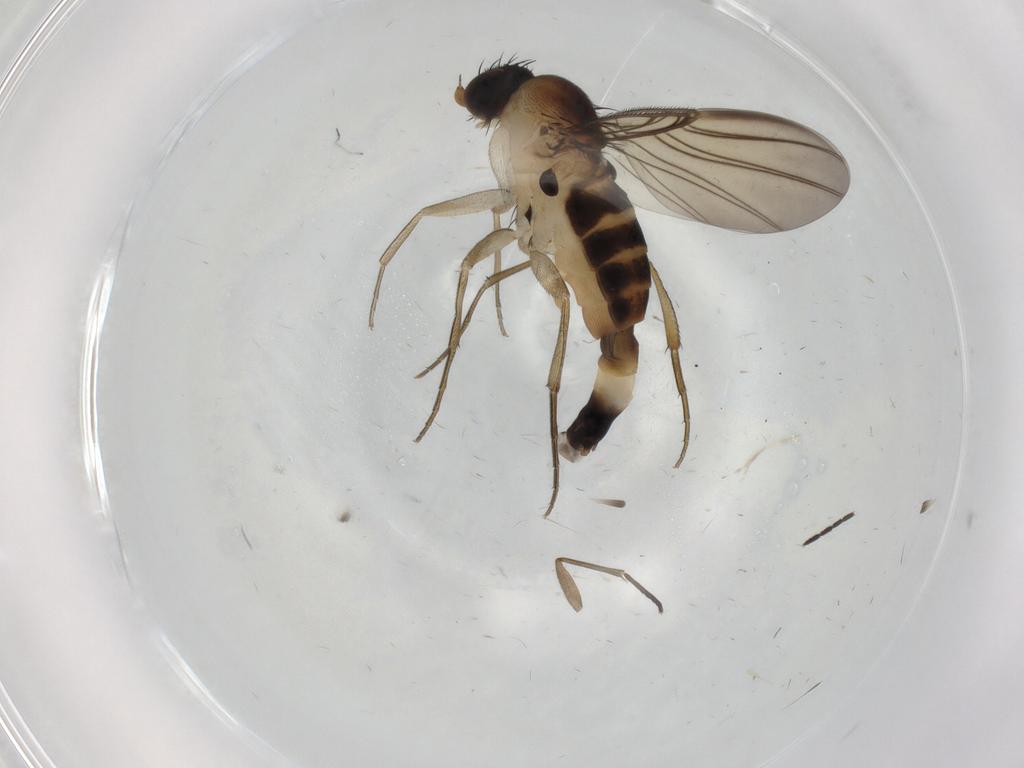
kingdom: Animalia
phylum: Arthropoda
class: Insecta
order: Diptera
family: Phoridae
